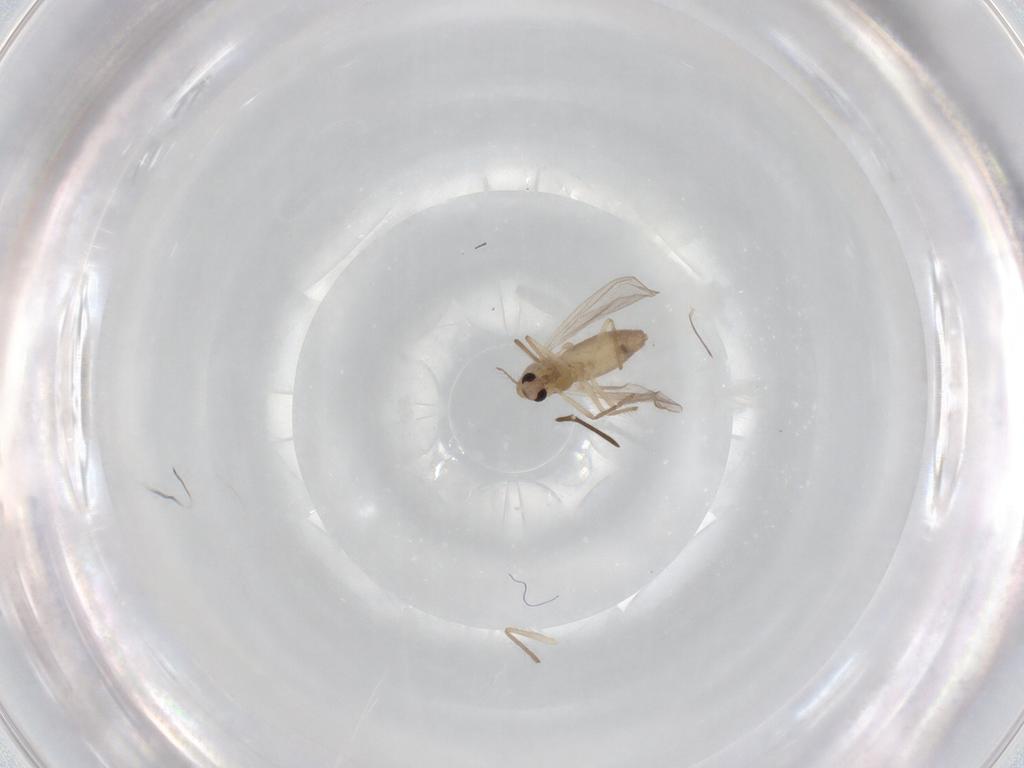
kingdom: Animalia
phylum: Arthropoda
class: Insecta
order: Diptera
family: Chironomidae
